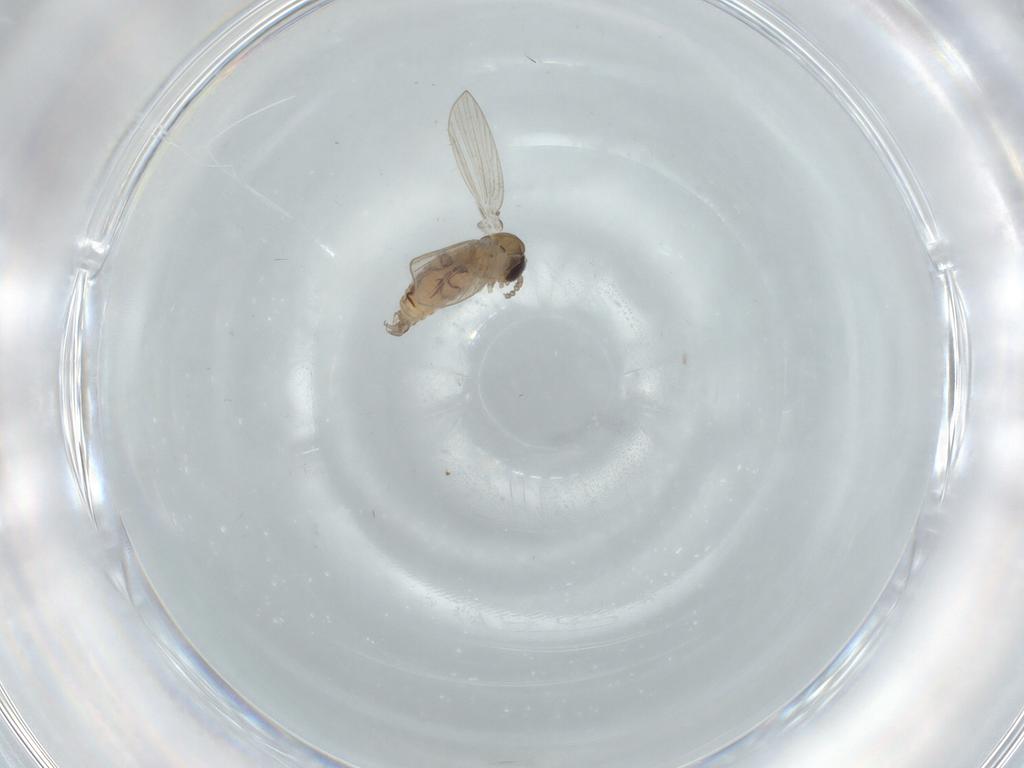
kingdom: Animalia
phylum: Arthropoda
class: Insecta
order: Diptera
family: Psychodidae
